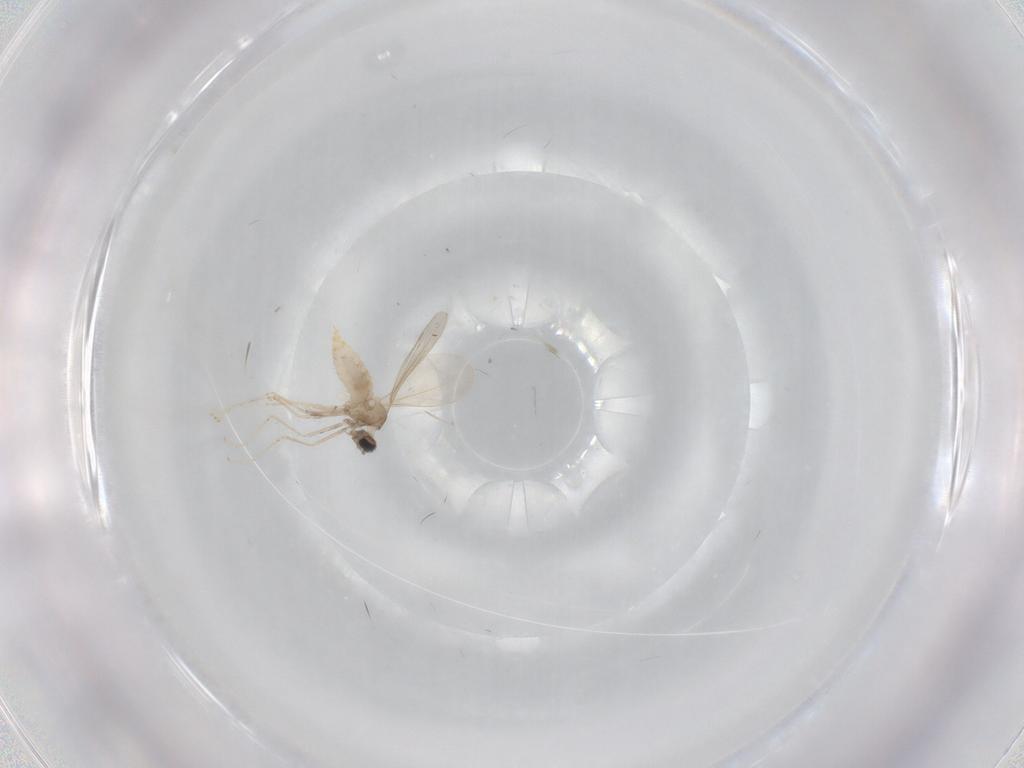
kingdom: Animalia
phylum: Arthropoda
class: Insecta
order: Diptera
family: Cecidomyiidae
